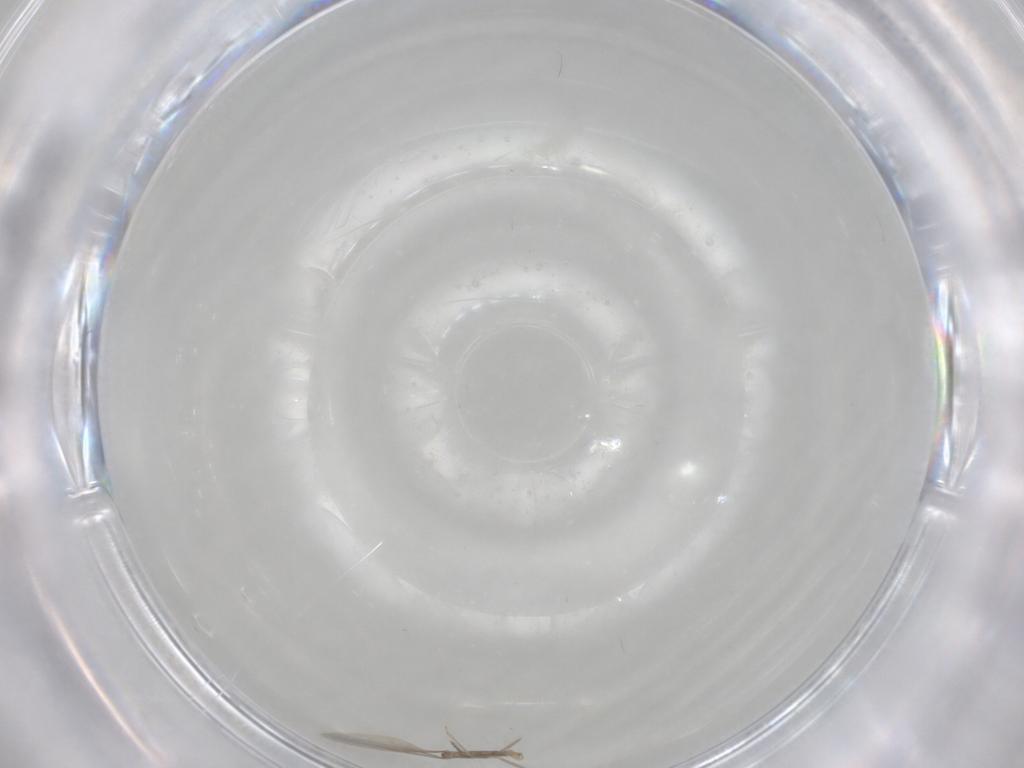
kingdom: Animalia
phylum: Arthropoda
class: Insecta
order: Diptera
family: Cecidomyiidae
